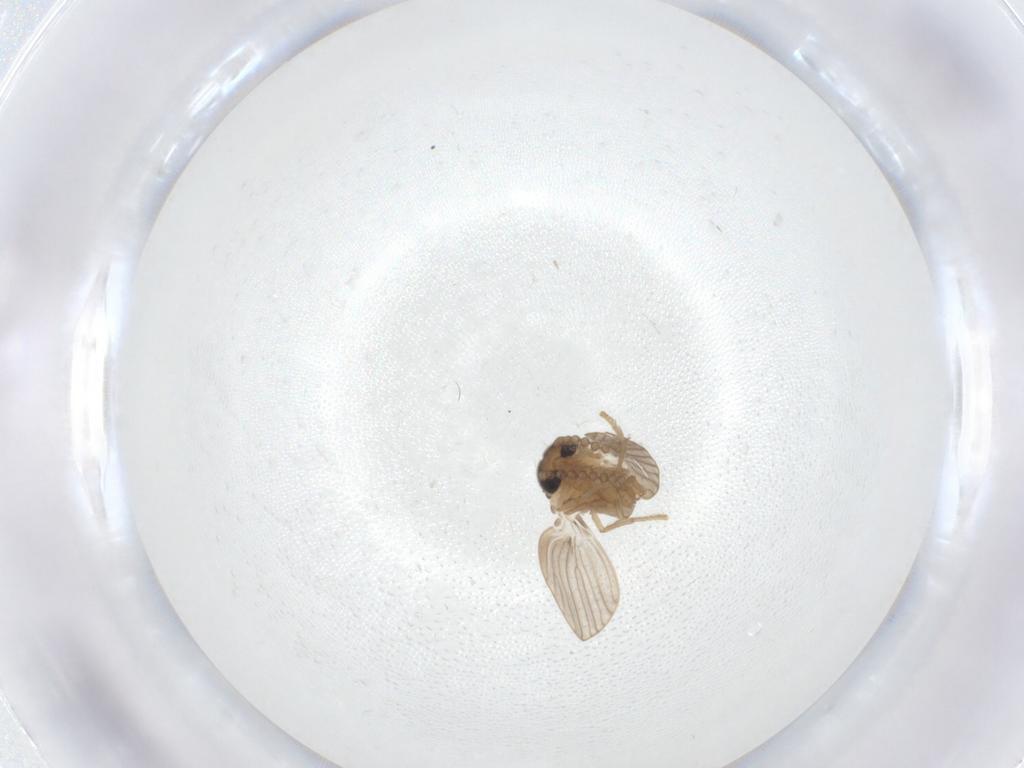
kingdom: Animalia
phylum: Arthropoda
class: Insecta
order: Diptera
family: Psychodidae
